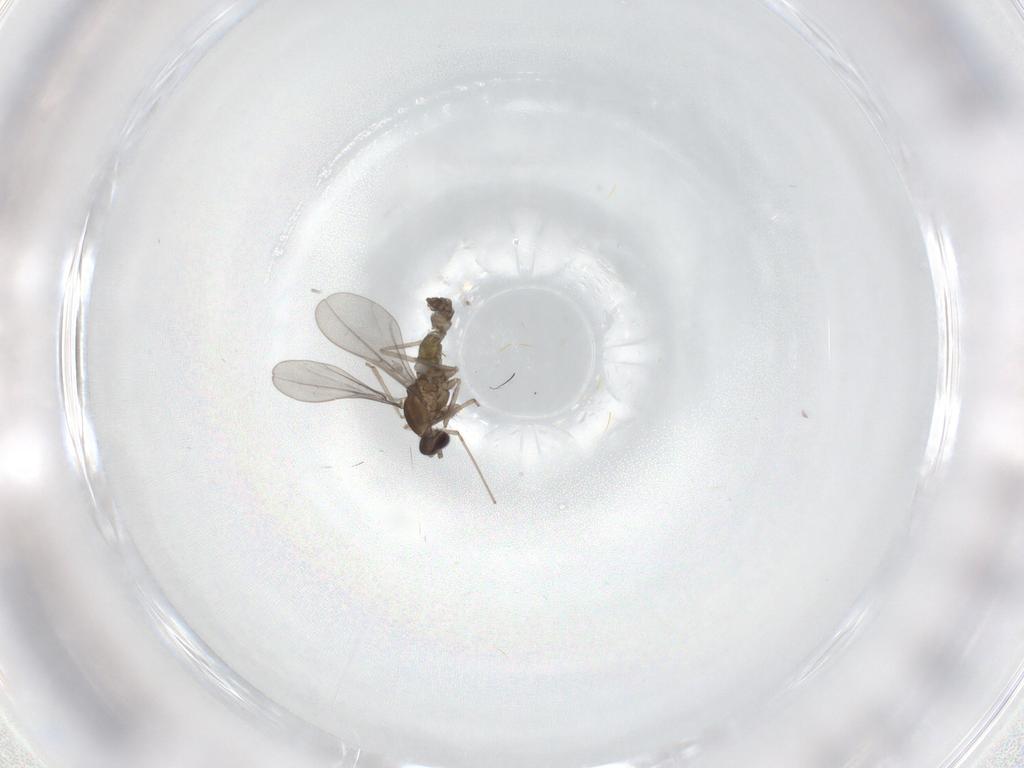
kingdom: Animalia
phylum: Arthropoda
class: Insecta
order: Diptera
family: Cecidomyiidae
